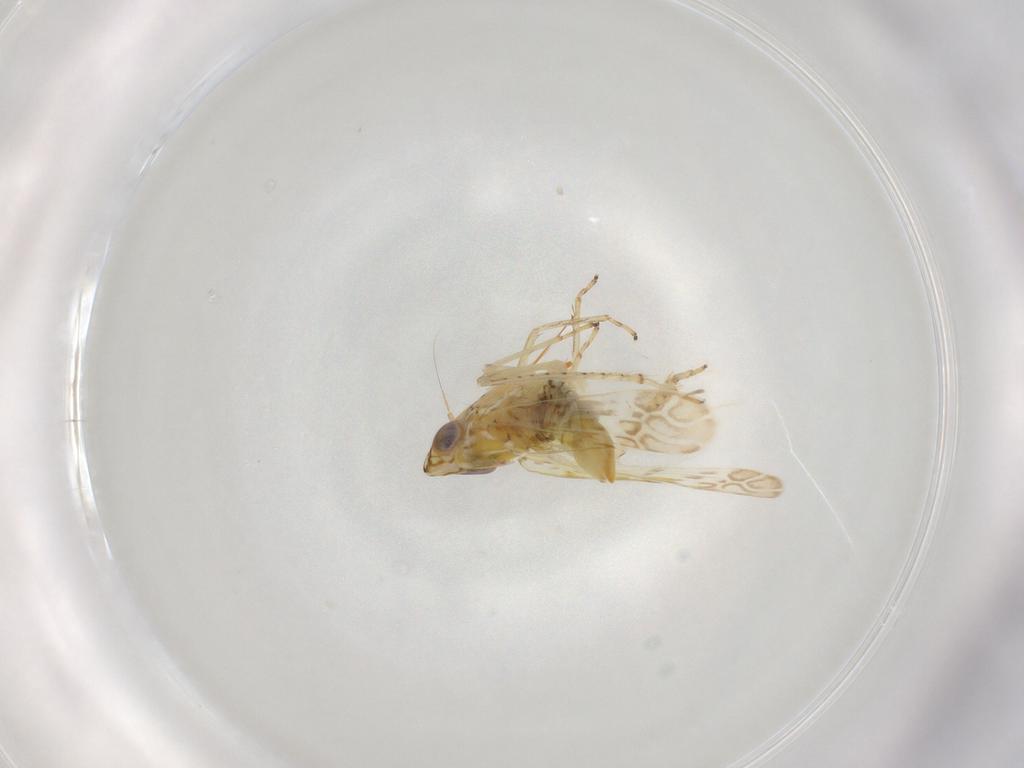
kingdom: Animalia
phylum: Arthropoda
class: Insecta
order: Hemiptera
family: Cicadellidae
